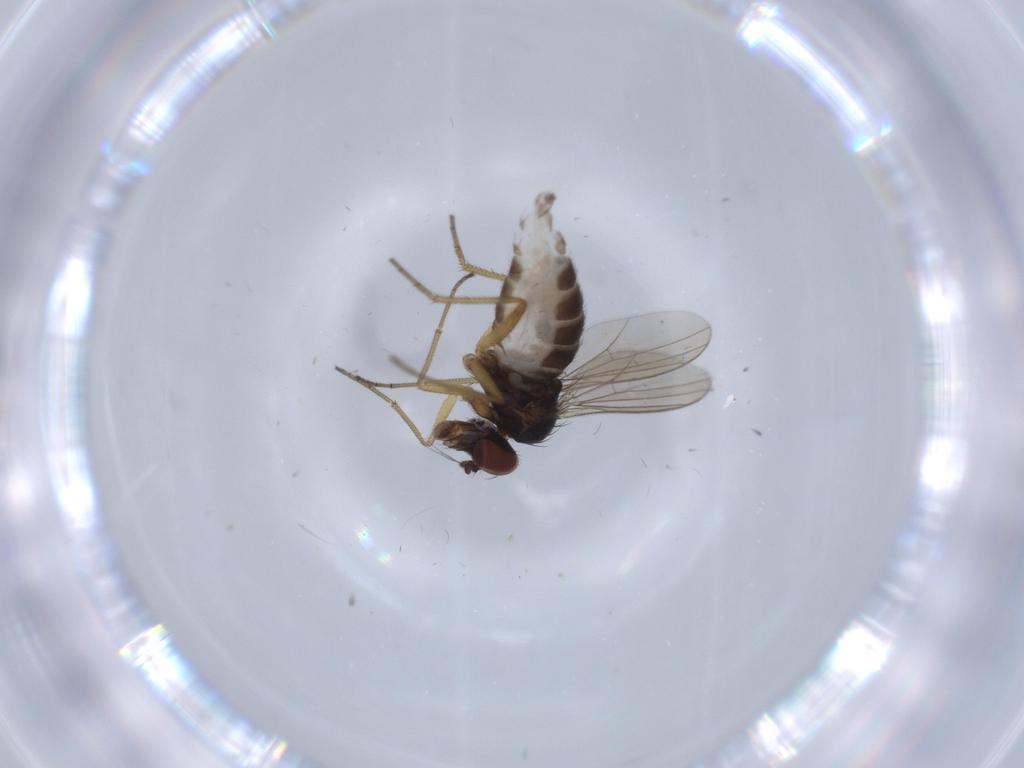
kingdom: Animalia
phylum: Arthropoda
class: Insecta
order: Diptera
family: Dolichopodidae
